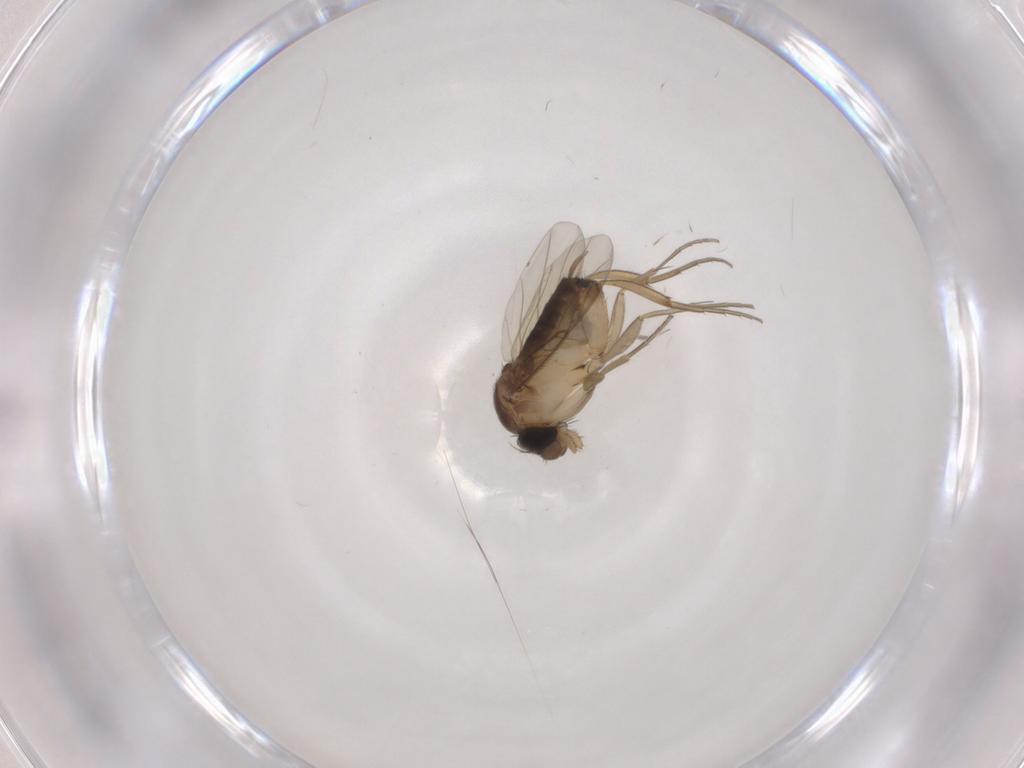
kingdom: Animalia
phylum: Arthropoda
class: Insecta
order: Diptera
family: Phoridae
